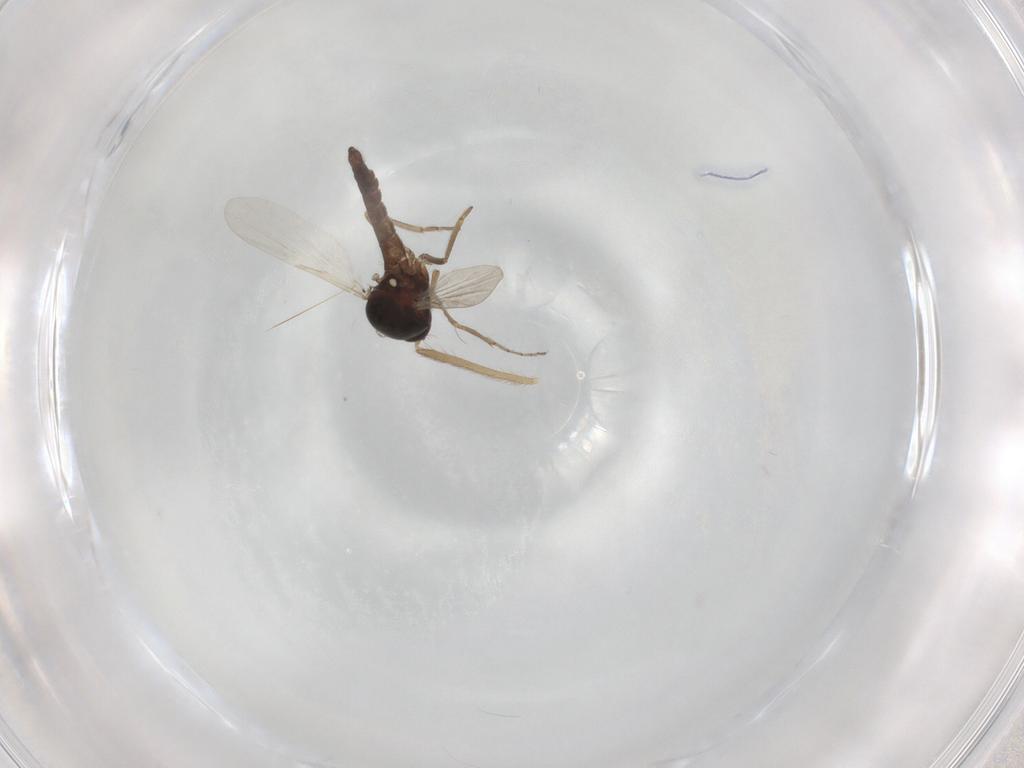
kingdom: Animalia
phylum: Arthropoda
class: Insecta
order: Diptera
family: Ceratopogonidae
